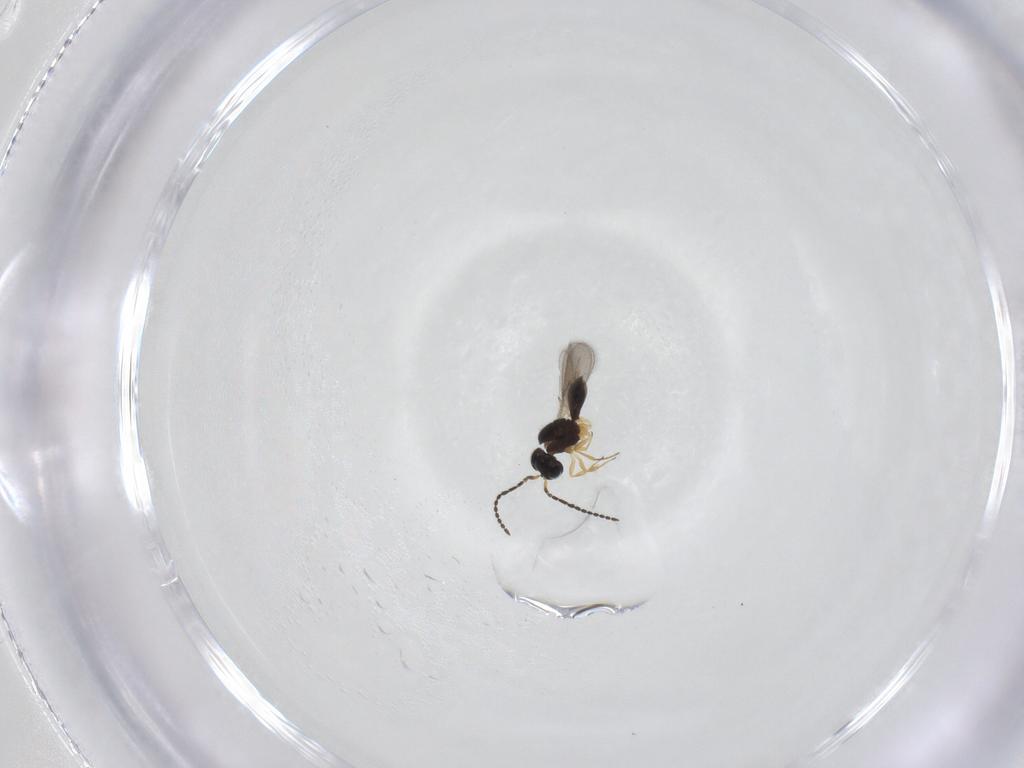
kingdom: Animalia
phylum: Arthropoda
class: Insecta
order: Hymenoptera
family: Scelionidae
